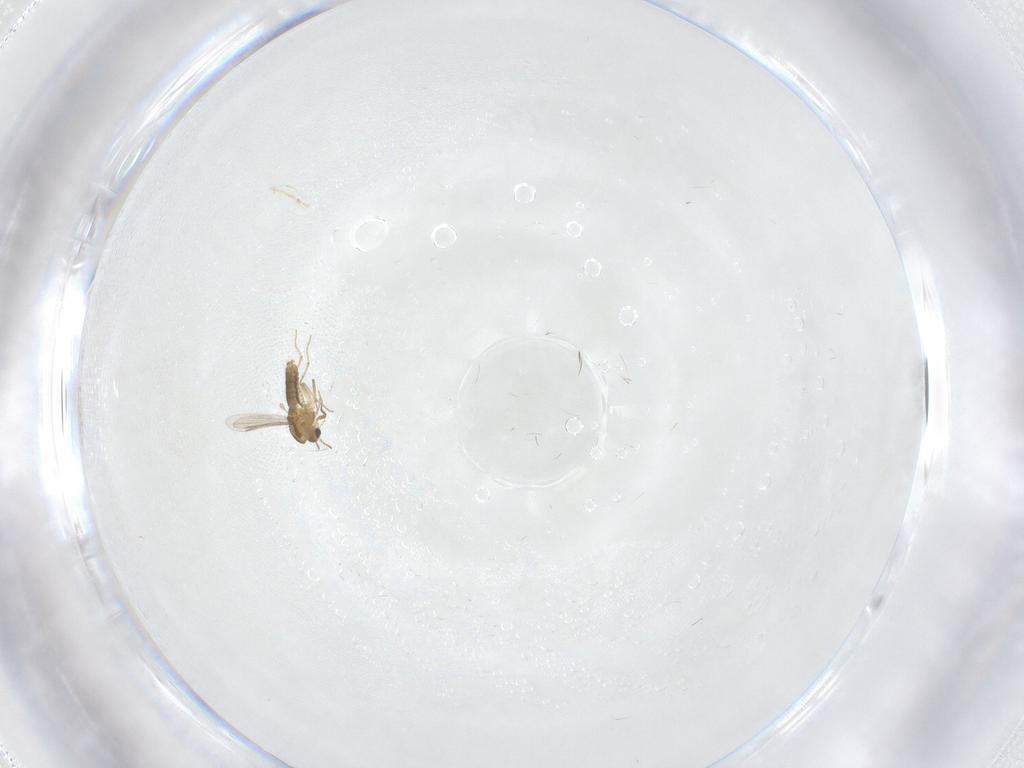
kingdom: Animalia
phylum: Arthropoda
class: Insecta
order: Diptera
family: Psychodidae
